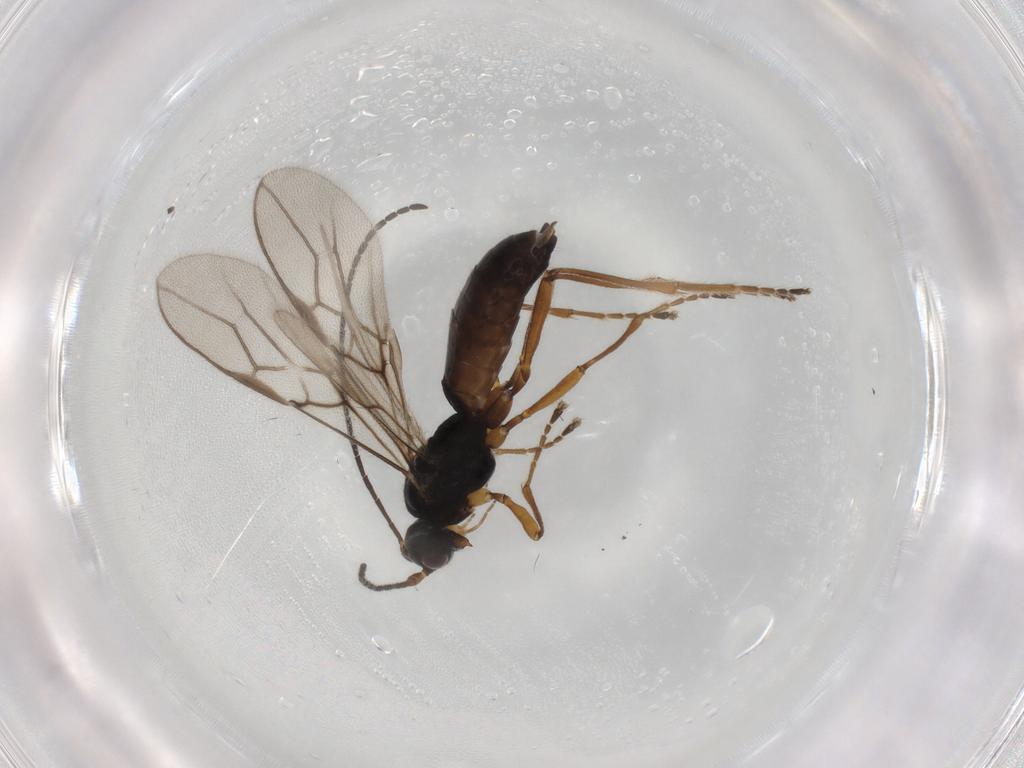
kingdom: Animalia
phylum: Arthropoda
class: Insecta
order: Hymenoptera
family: Braconidae
